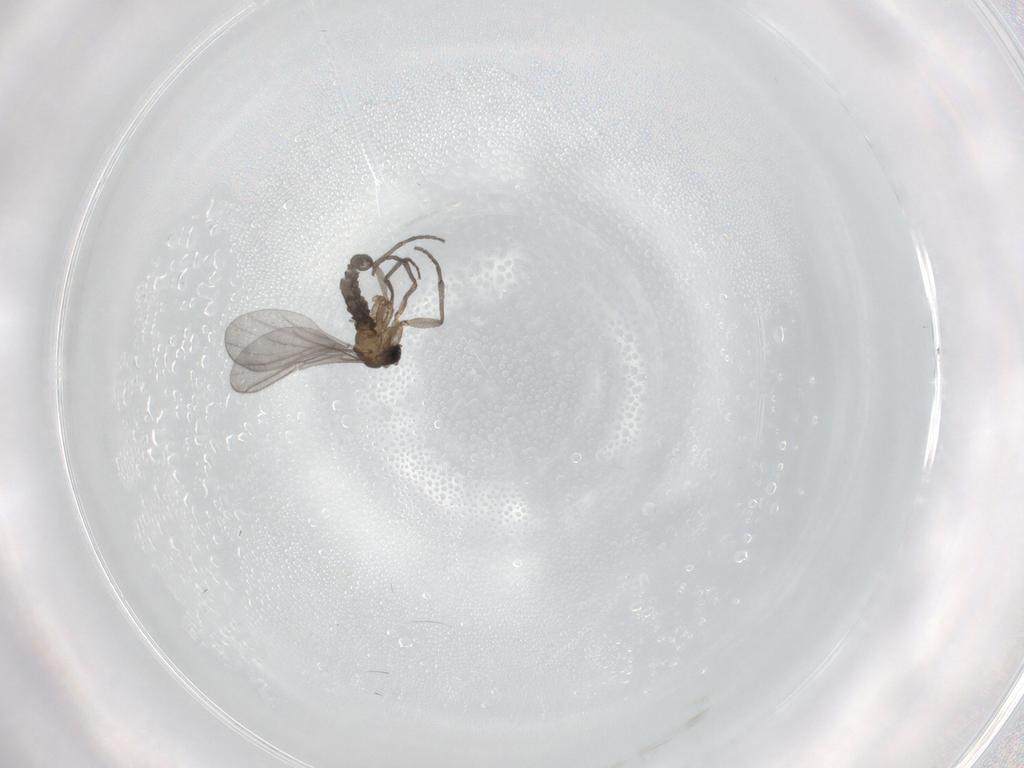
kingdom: Animalia
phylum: Arthropoda
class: Insecta
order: Diptera
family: Sciaridae
